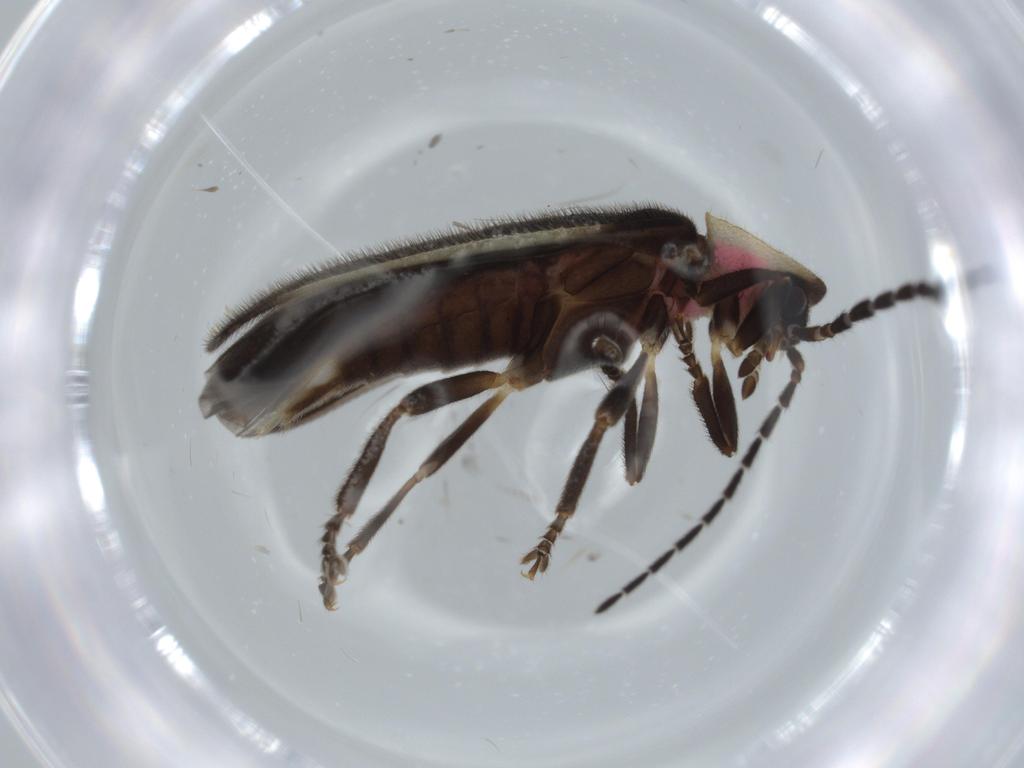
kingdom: Animalia
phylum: Arthropoda
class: Insecta
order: Coleoptera
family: Lampyridae
